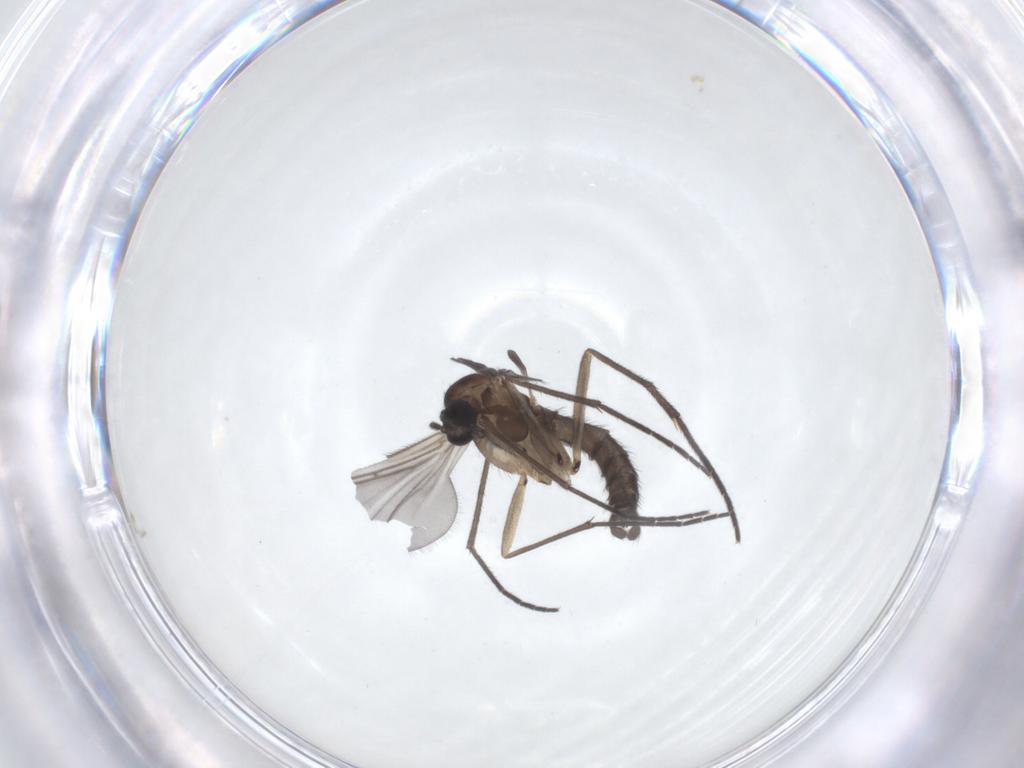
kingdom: Animalia
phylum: Arthropoda
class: Insecta
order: Diptera
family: Sciaridae
